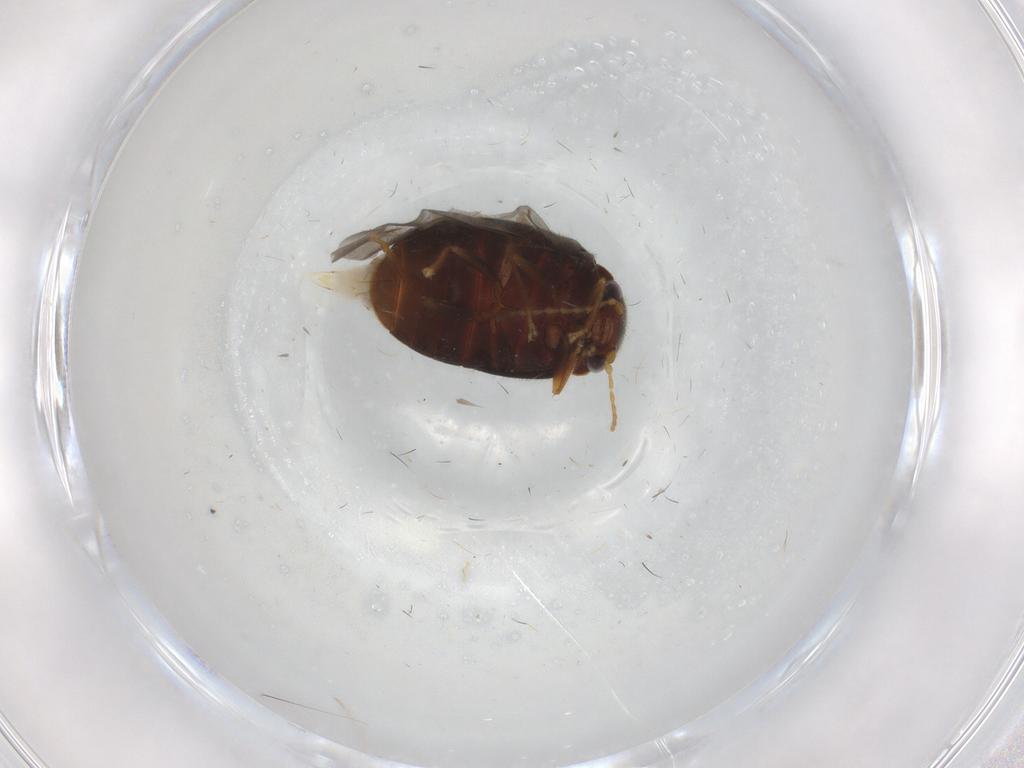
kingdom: Animalia
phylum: Arthropoda
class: Insecta
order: Coleoptera
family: Scirtidae
